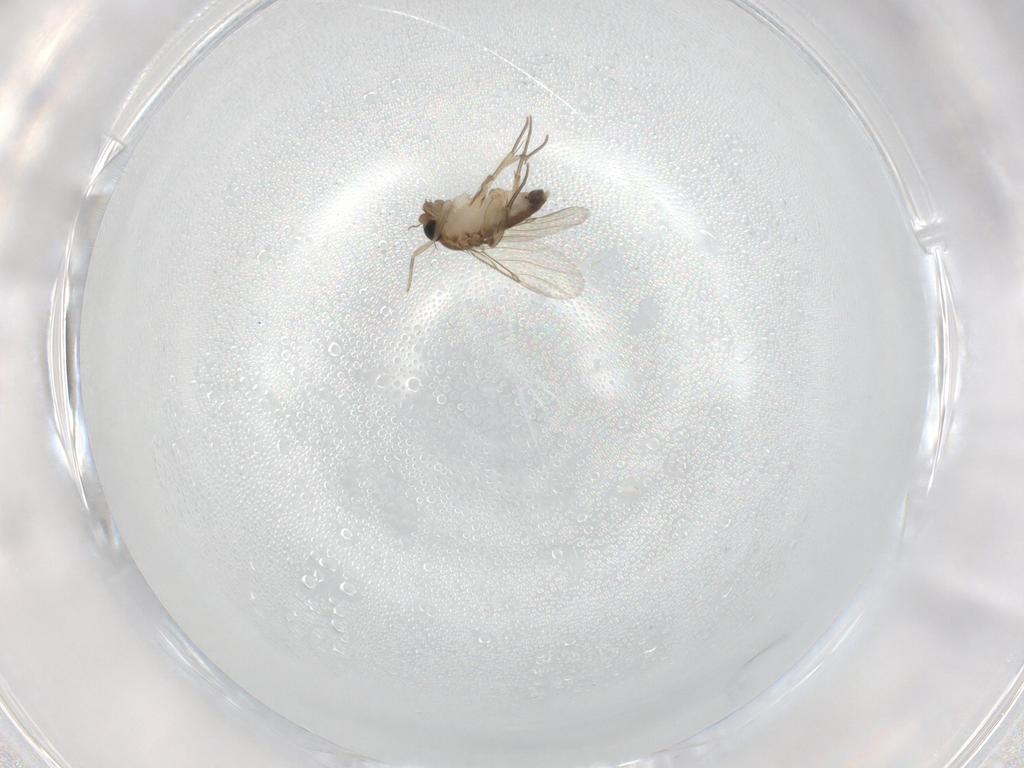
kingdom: Animalia
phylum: Arthropoda
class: Insecta
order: Diptera
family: Phoridae
